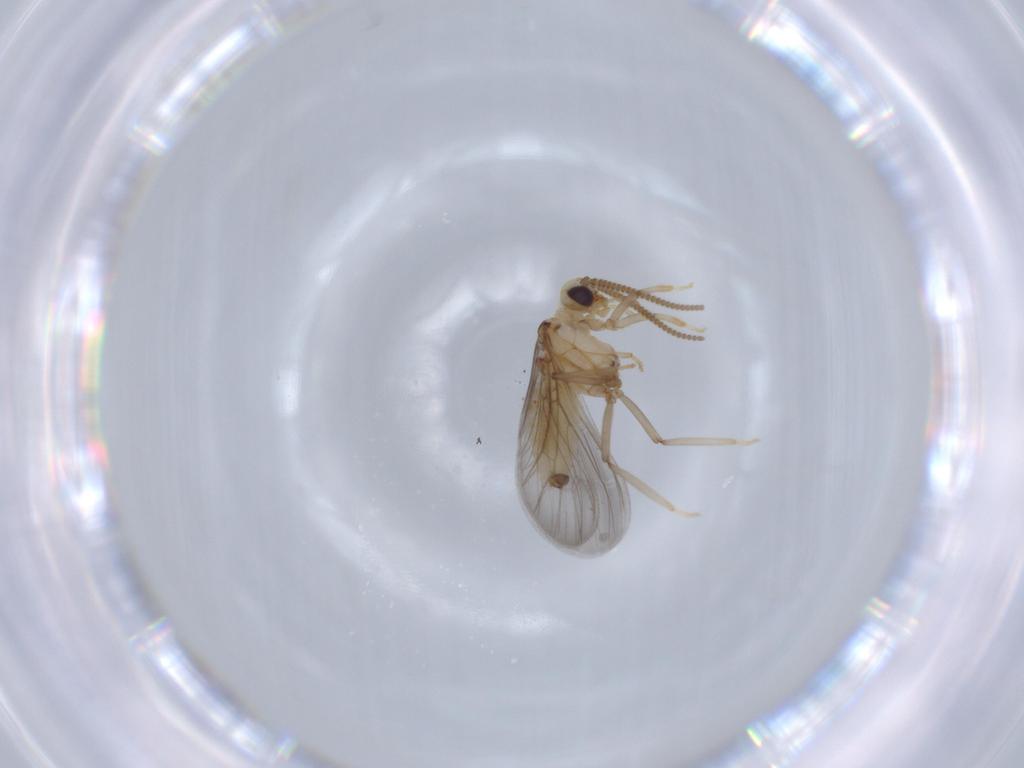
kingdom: Animalia
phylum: Arthropoda
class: Insecta
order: Neuroptera
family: Coniopterygidae
